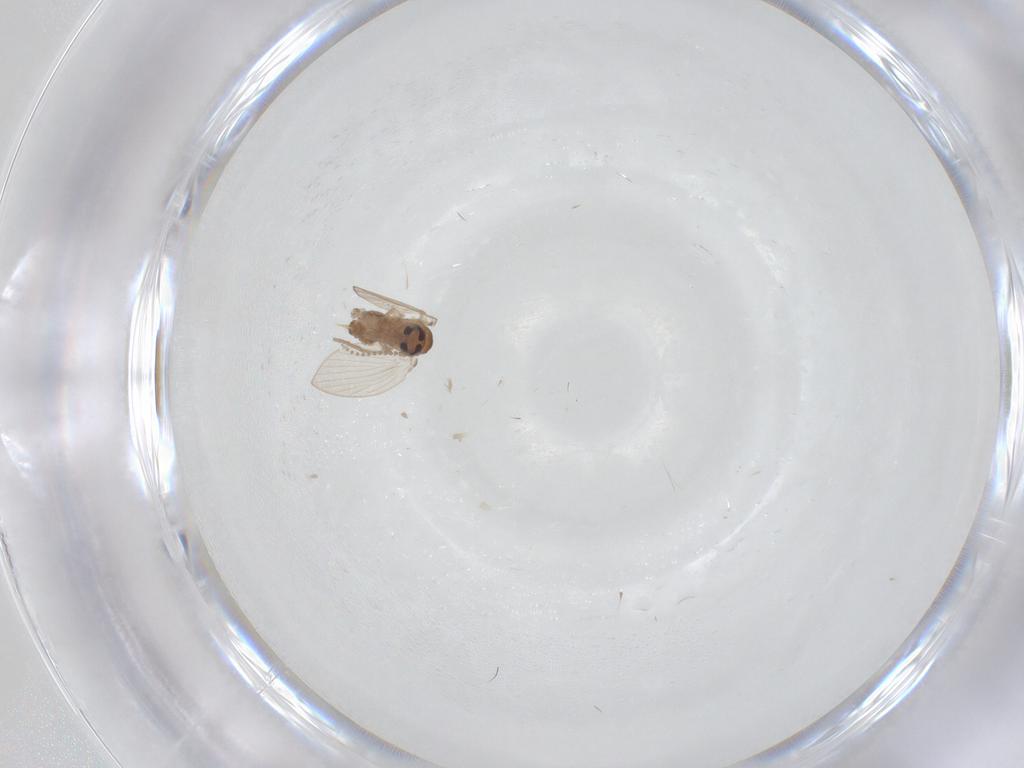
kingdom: Animalia
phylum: Arthropoda
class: Insecta
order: Diptera
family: Psychodidae
